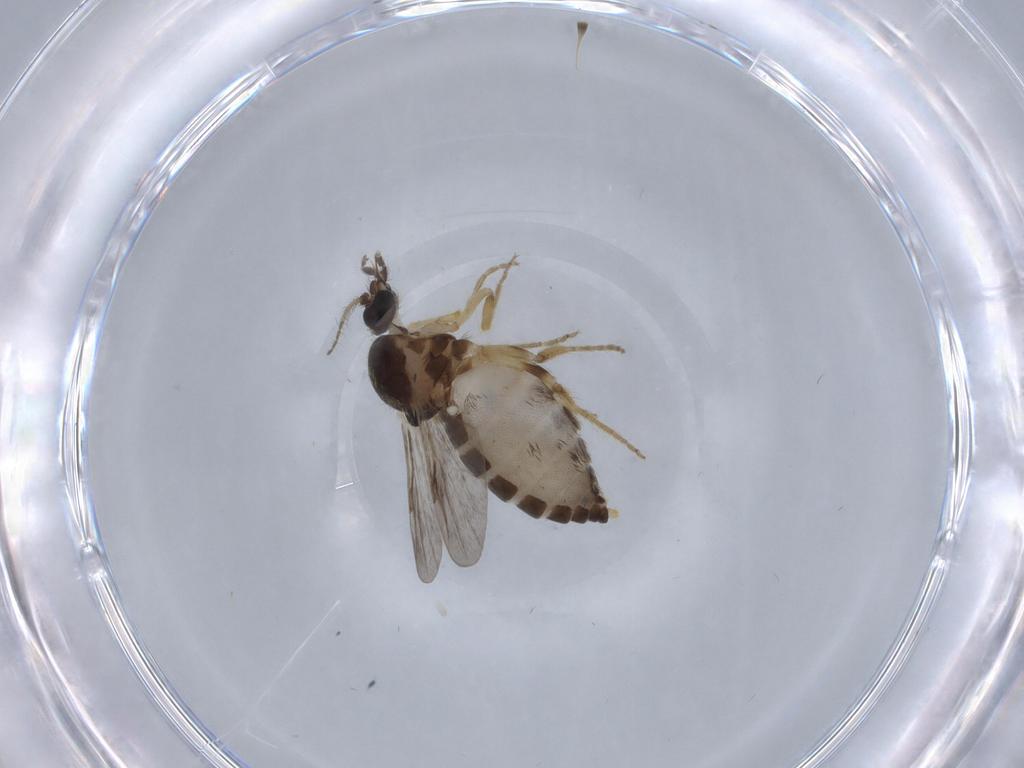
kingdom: Animalia
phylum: Arthropoda
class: Insecta
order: Diptera
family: Ceratopogonidae
